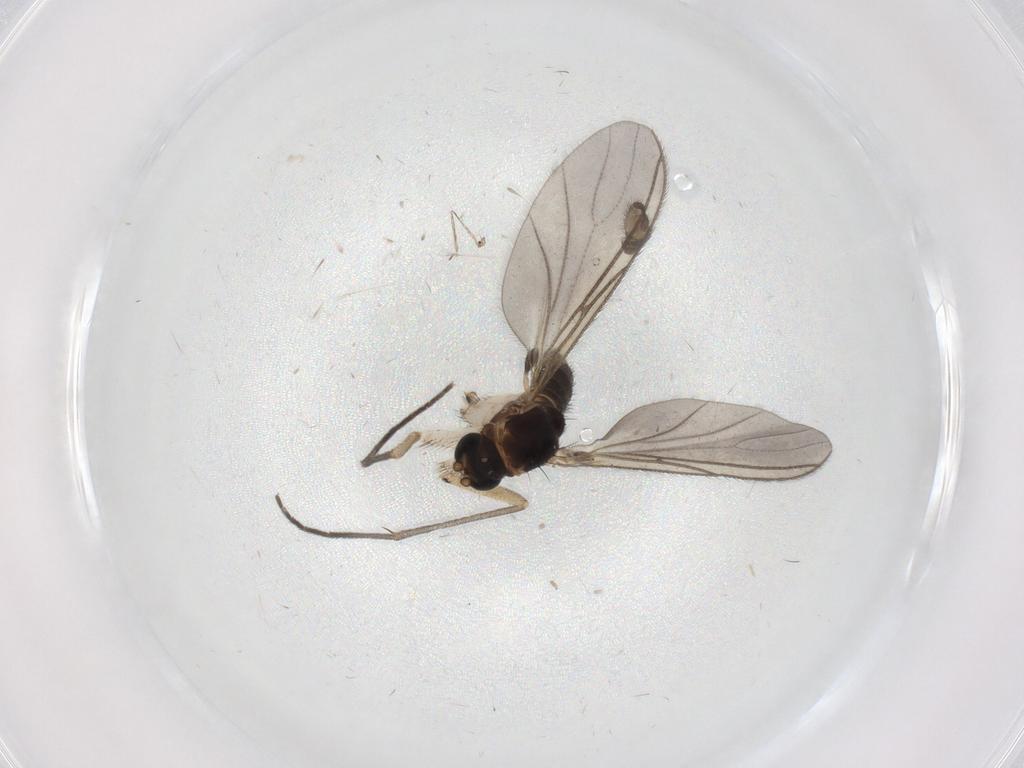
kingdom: Animalia
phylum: Arthropoda
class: Insecta
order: Diptera
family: Sciaridae
